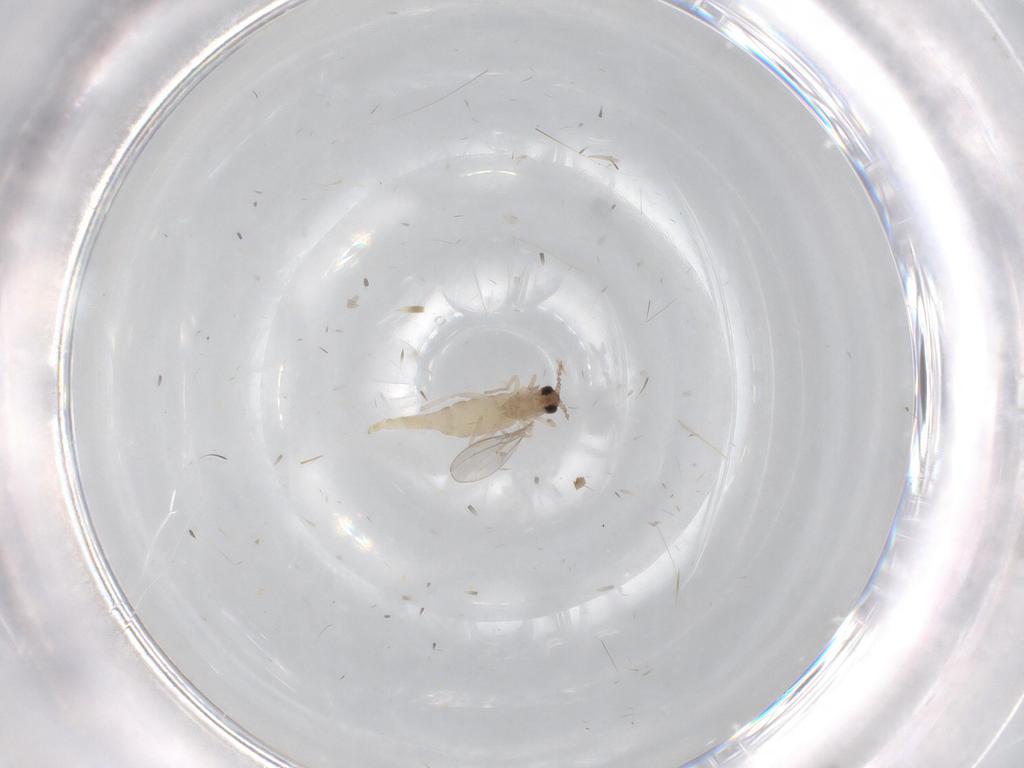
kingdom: Animalia
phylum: Arthropoda
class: Insecta
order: Diptera
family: Cecidomyiidae
